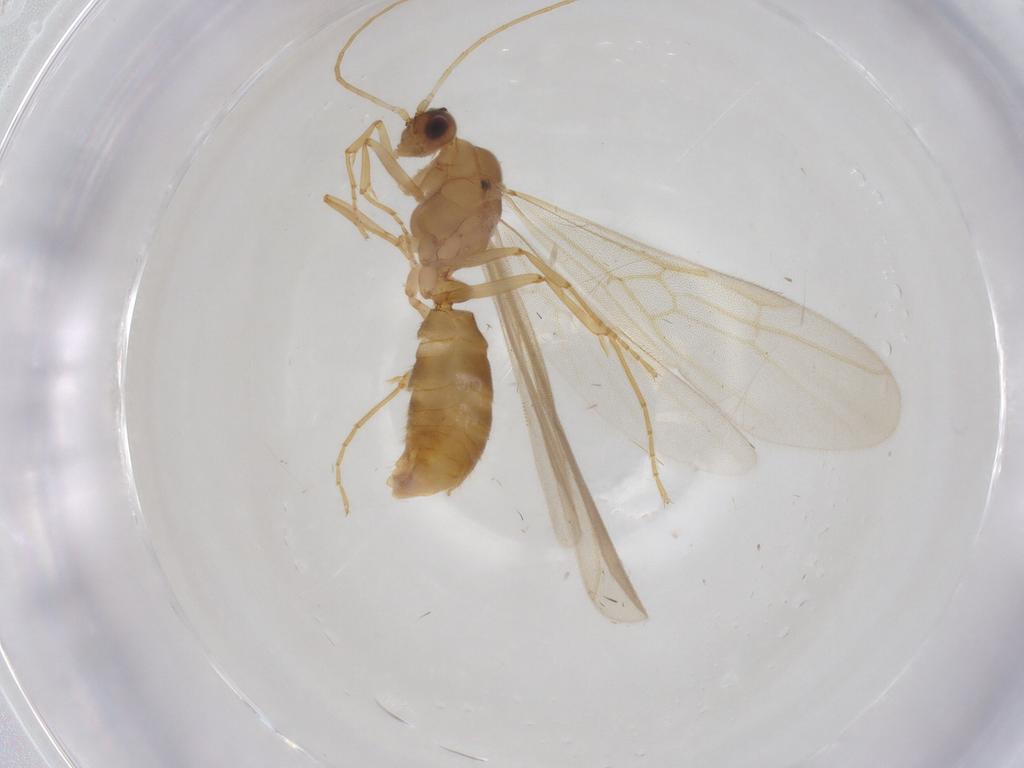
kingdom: Animalia
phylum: Arthropoda
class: Insecta
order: Hymenoptera
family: Formicidae
